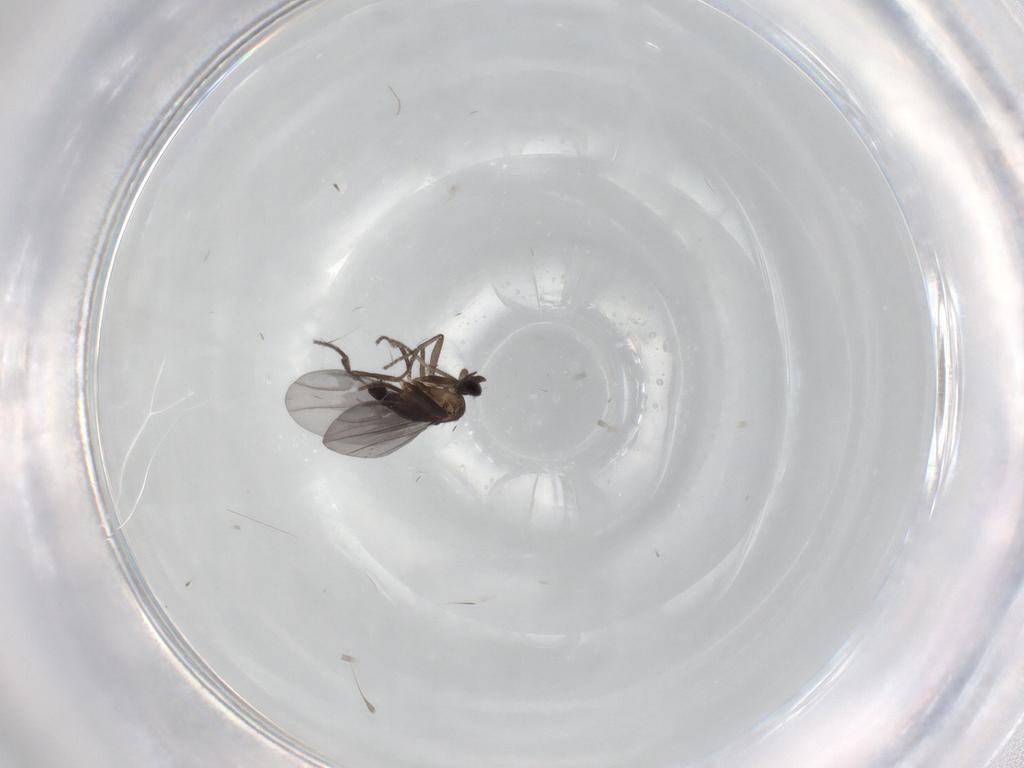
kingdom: Animalia
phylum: Arthropoda
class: Insecta
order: Diptera
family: Phoridae
